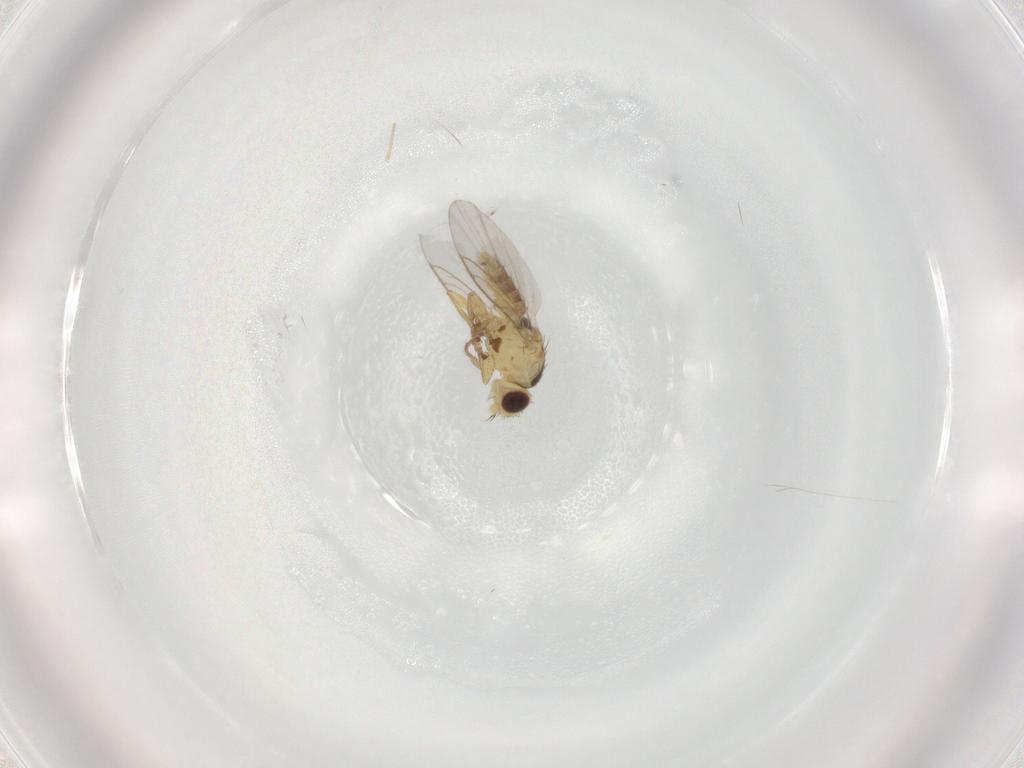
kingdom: Animalia
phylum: Arthropoda
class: Insecta
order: Diptera
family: Agromyzidae
